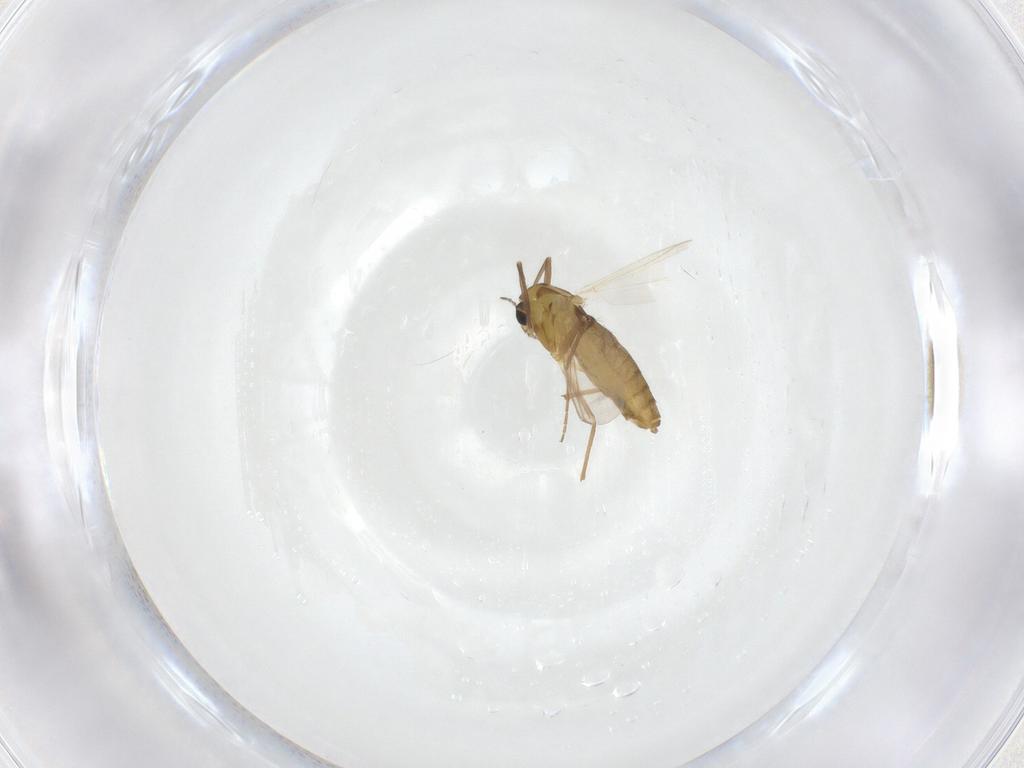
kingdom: Animalia
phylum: Arthropoda
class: Insecta
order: Diptera
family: Chironomidae
